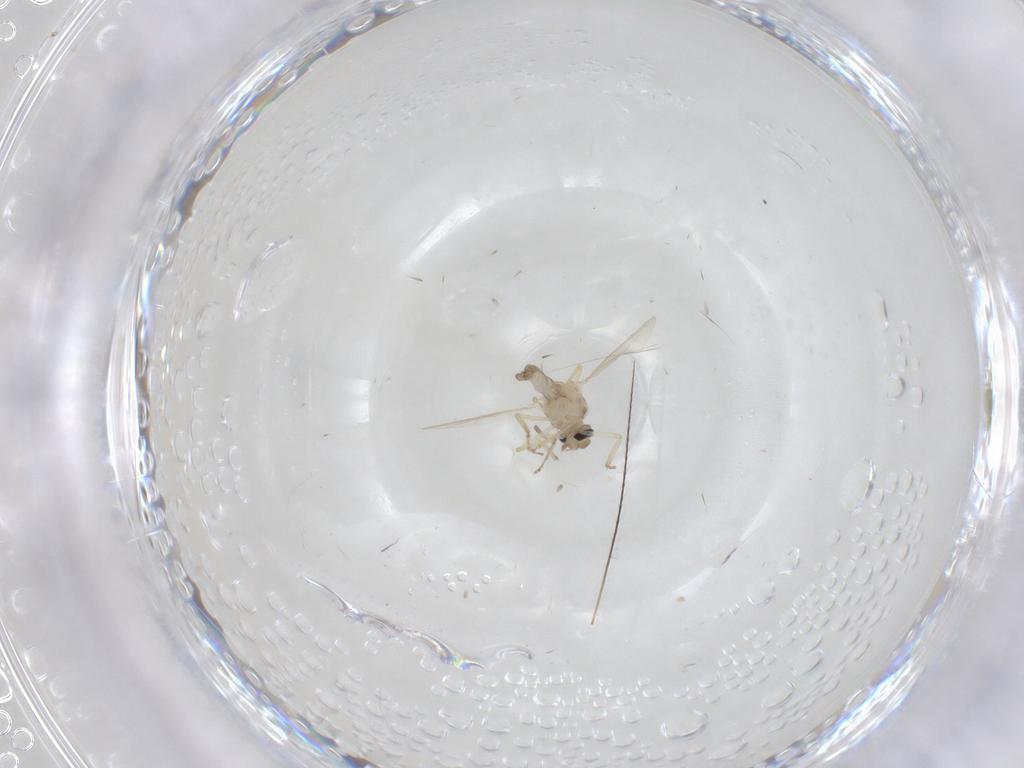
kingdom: Animalia
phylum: Arthropoda
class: Insecta
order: Diptera
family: Ceratopogonidae
